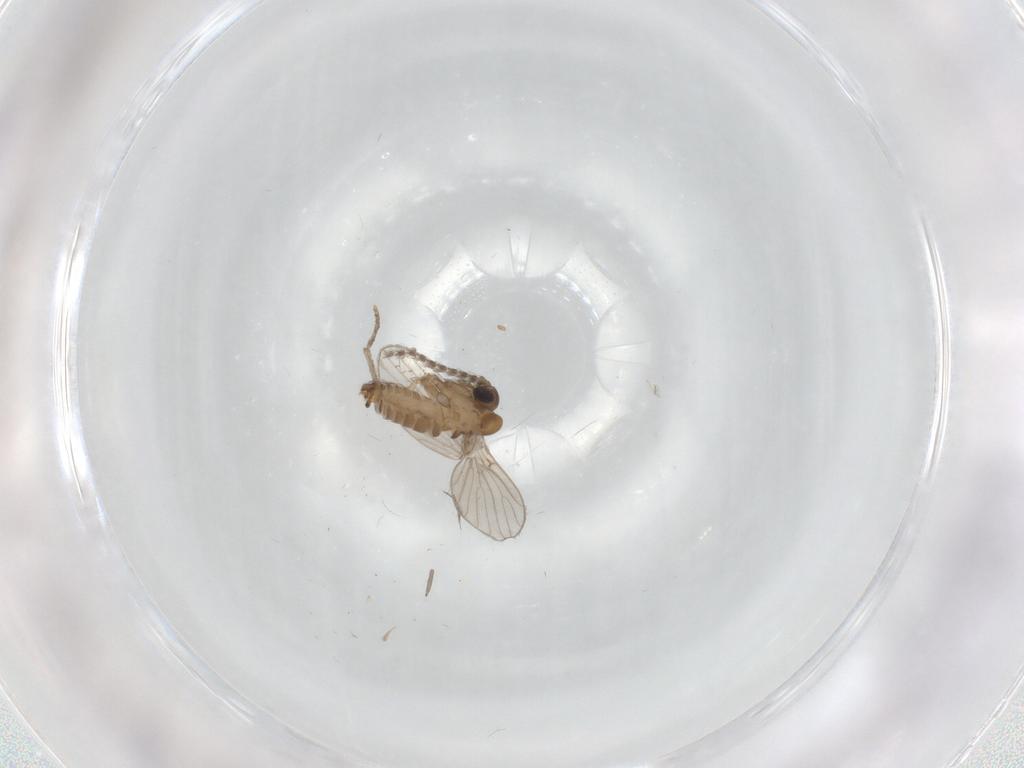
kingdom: Animalia
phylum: Arthropoda
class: Insecta
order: Diptera
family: Psychodidae
